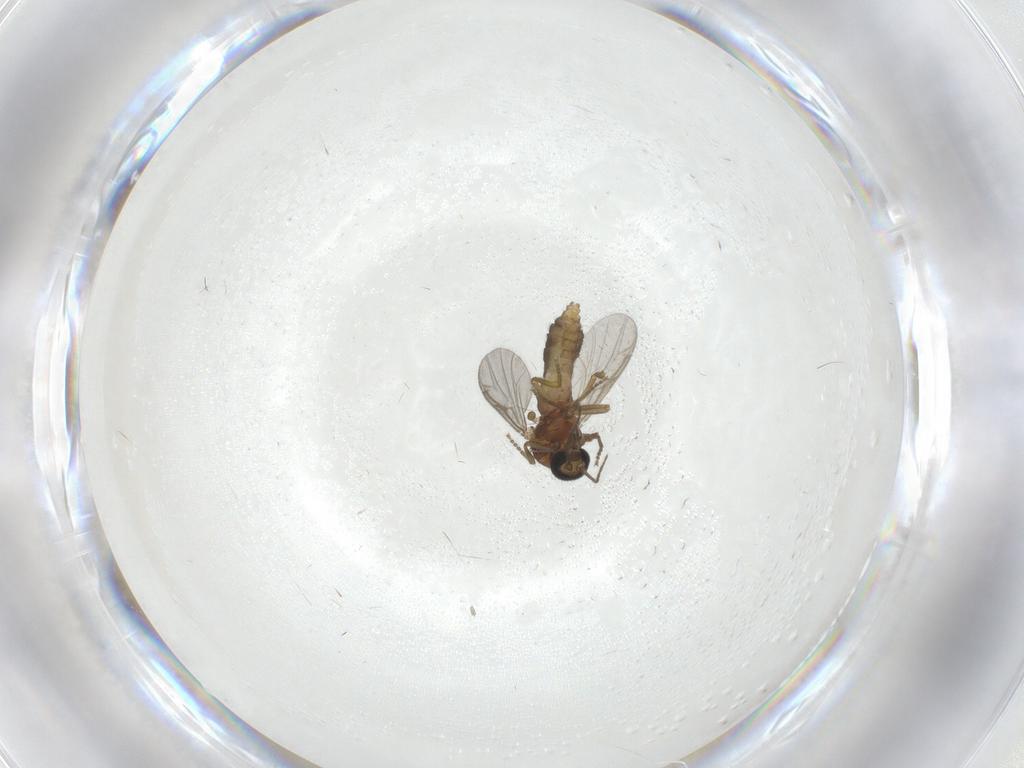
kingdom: Animalia
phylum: Arthropoda
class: Insecta
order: Diptera
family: Ceratopogonidae
